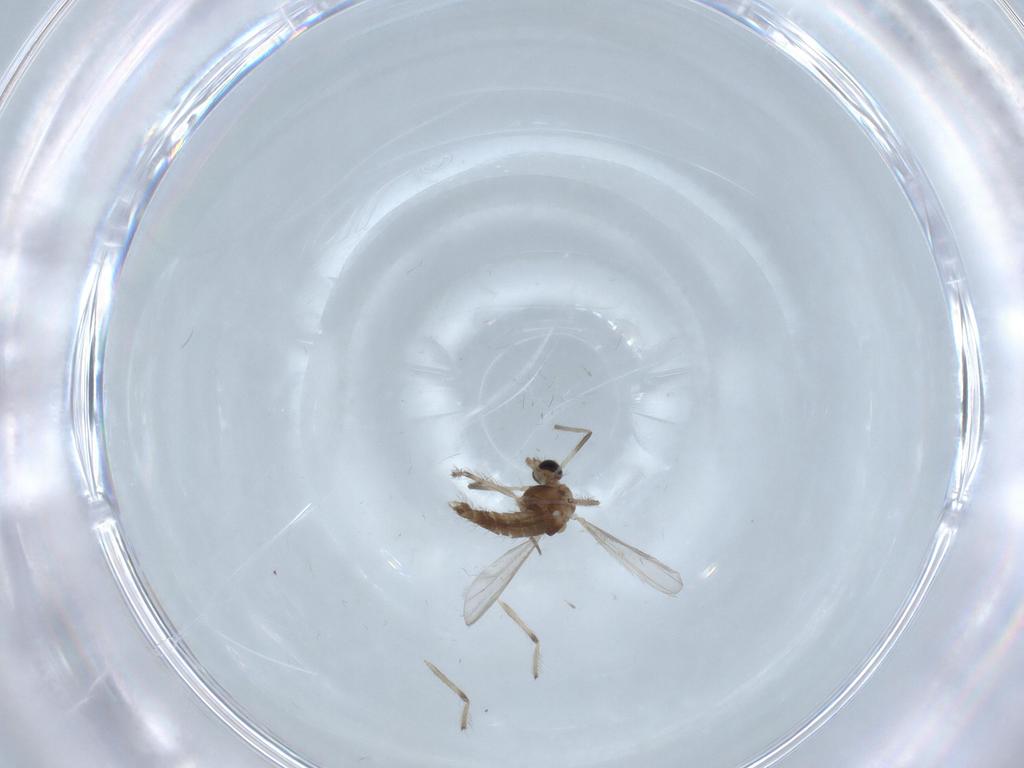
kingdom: Animalia
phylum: Arthropoda
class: Insecta
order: Diptera
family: Chironomidae
